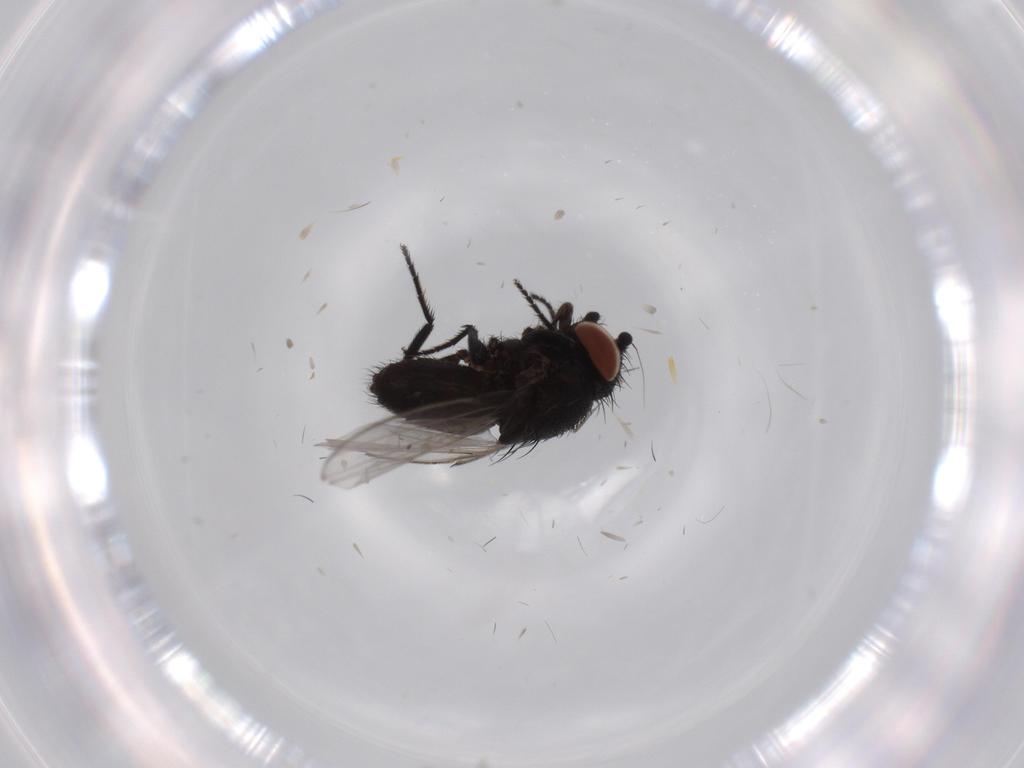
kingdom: Animalia
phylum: Arthropoda
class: Insecta
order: Diptera
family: Milichiidae
